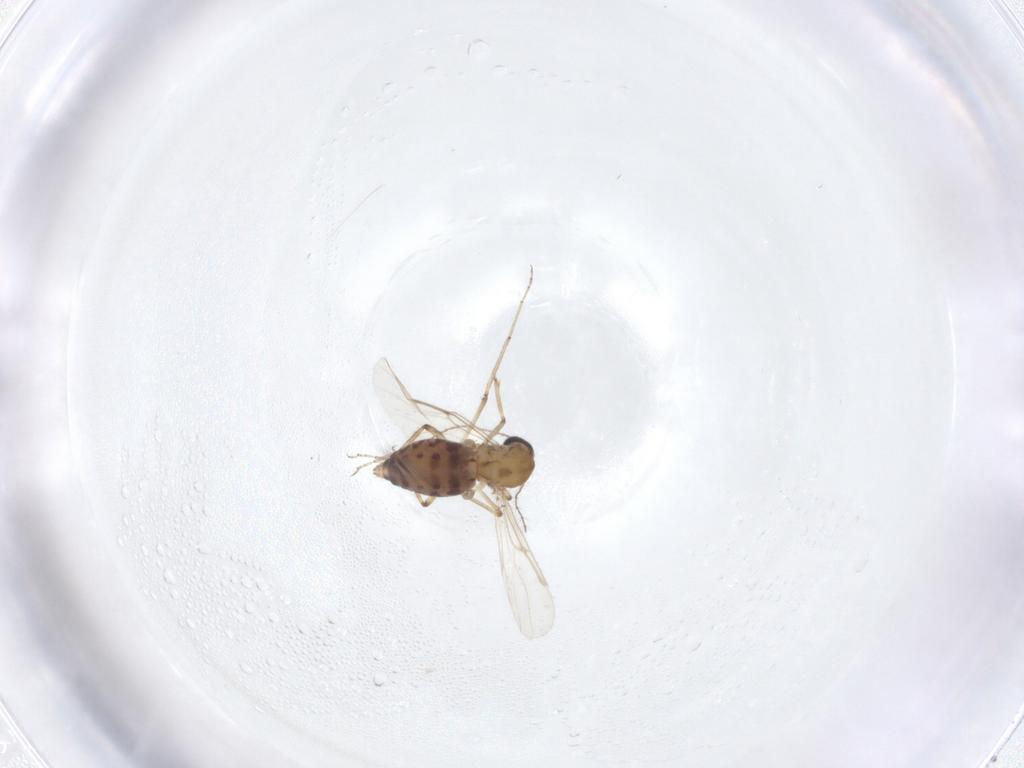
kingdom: Animalia
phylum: Arthropoda
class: Insecta
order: Diptera
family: Ceratopogonidae
